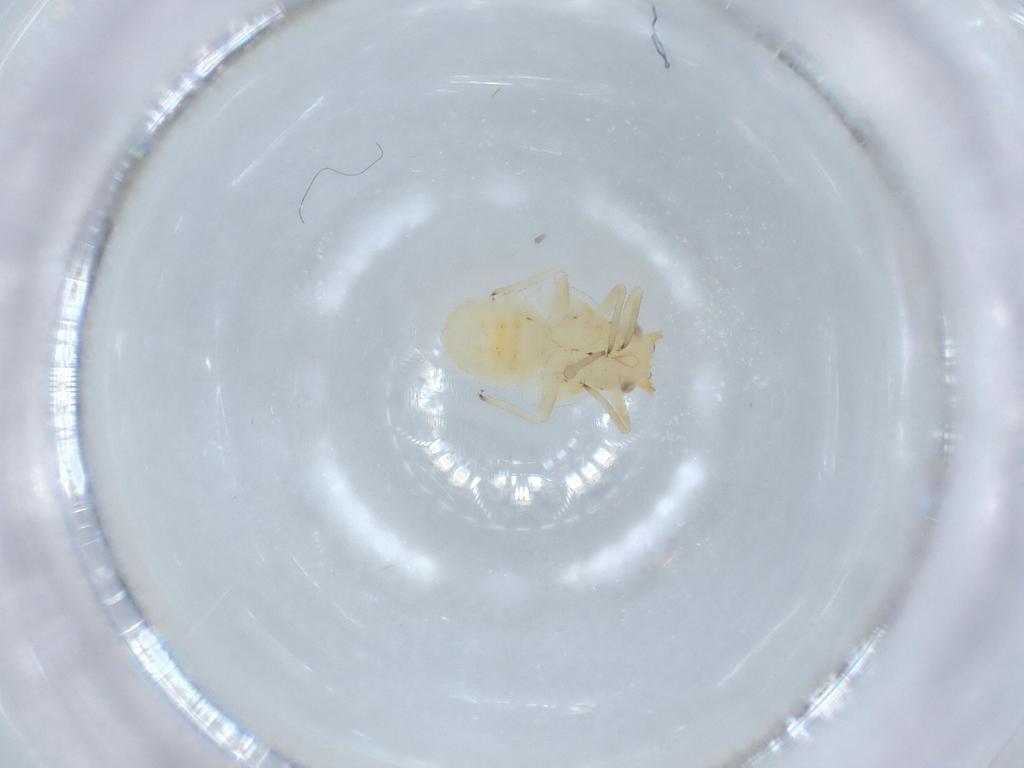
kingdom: Animalia
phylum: Arthropoda
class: Insecta
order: Hemiptera
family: Psyllidae
